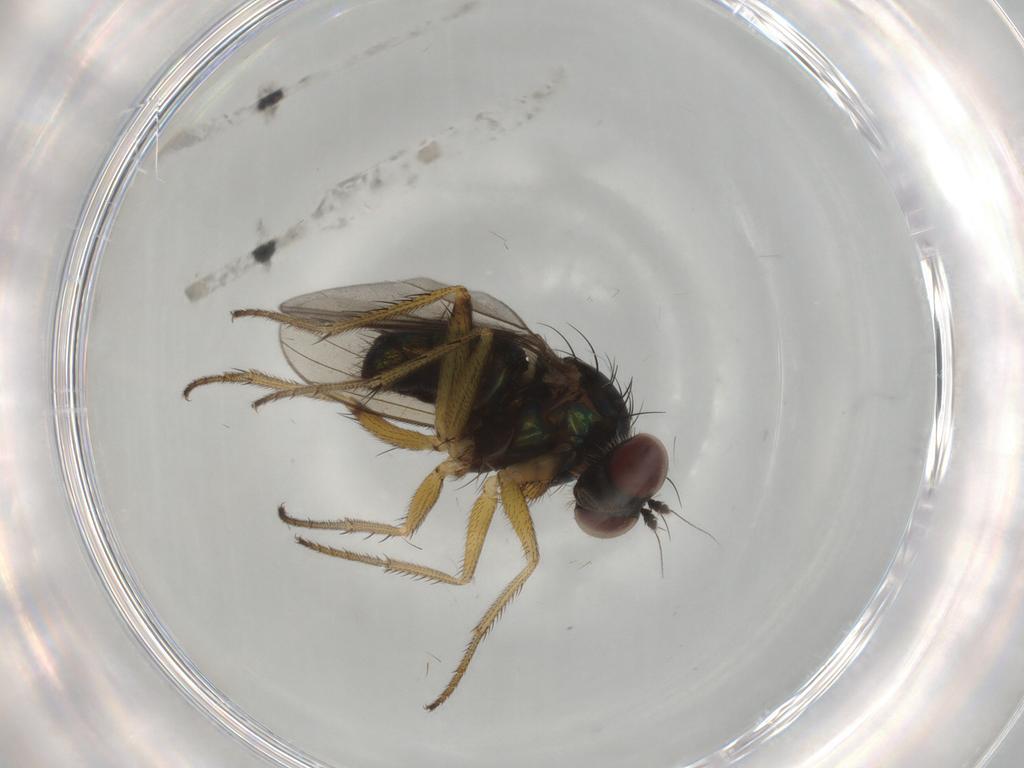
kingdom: Animalia
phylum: Arthropoda
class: Insecta
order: Diptera
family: Dolichopodidae
